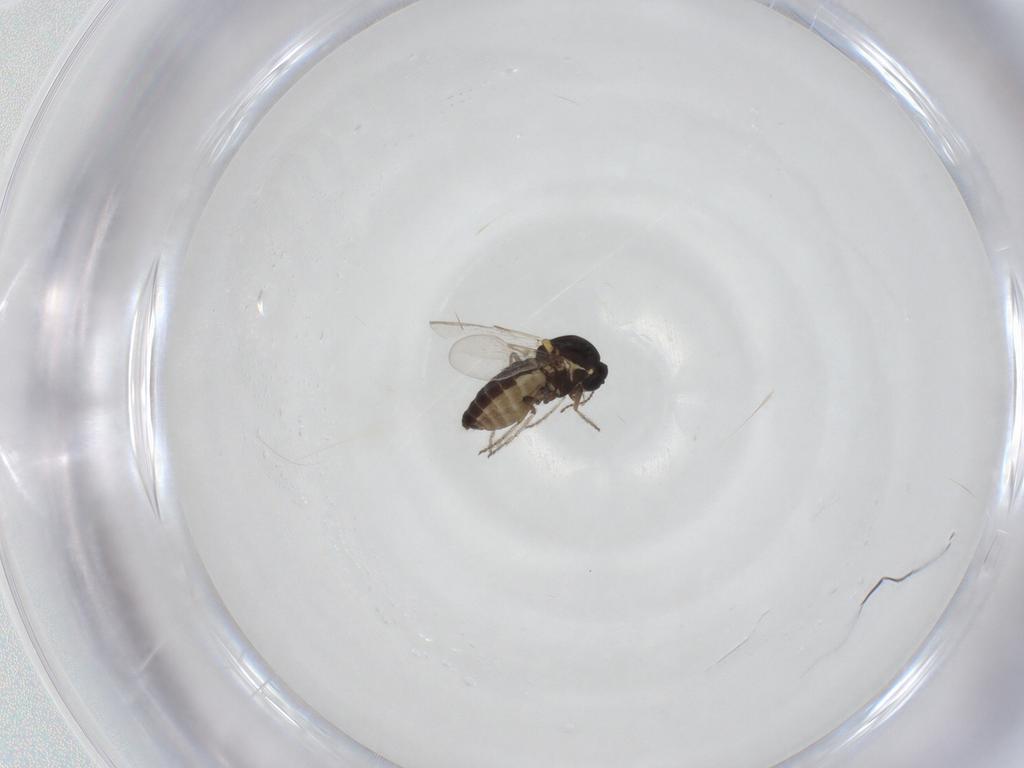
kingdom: Animalia
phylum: Arthropoda
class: Insecta
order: Diptera
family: Ceratopogonidae
